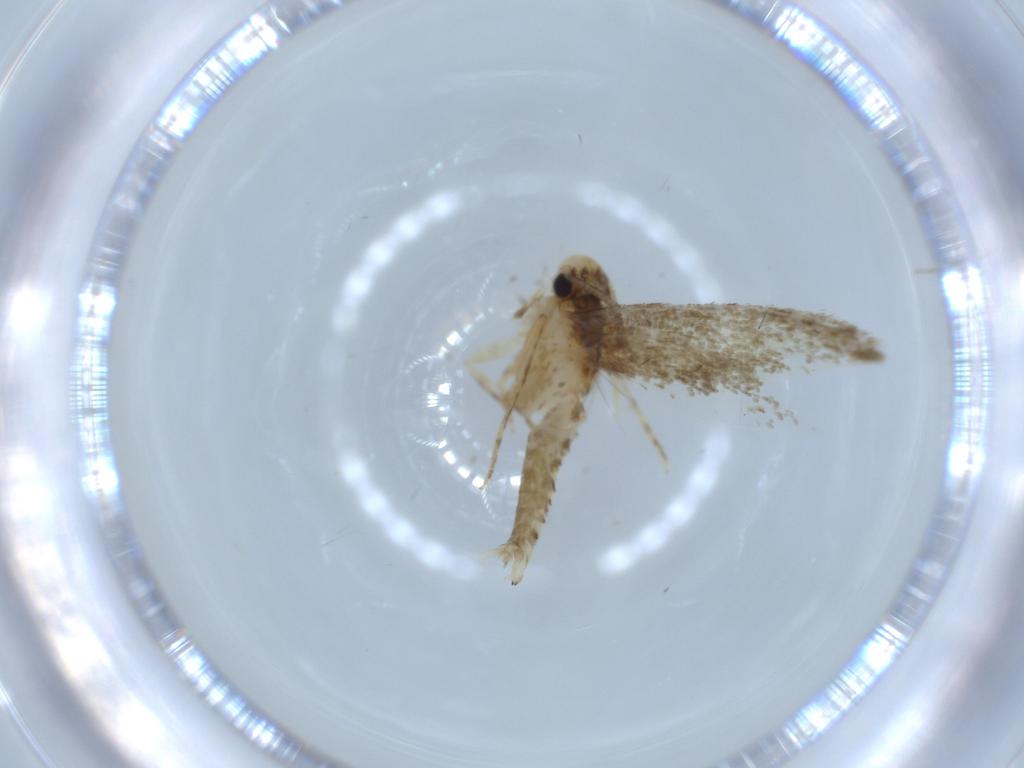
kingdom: Animalia
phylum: Arthropoda
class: Insecta
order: Lepidoptera
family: Tineidae
